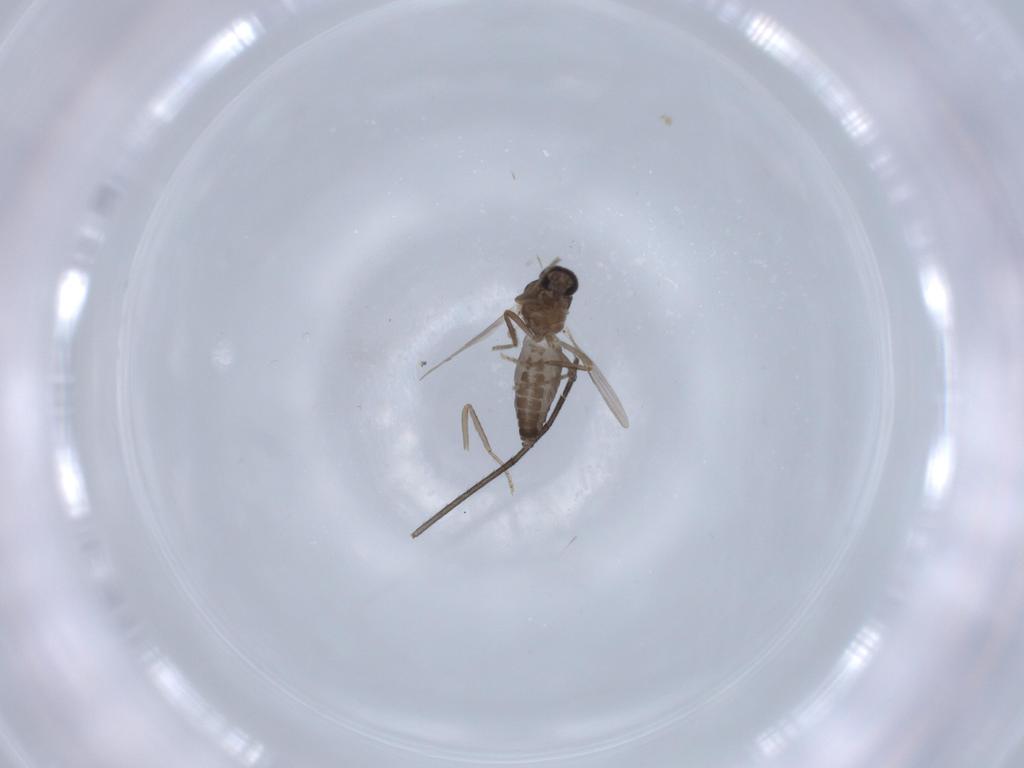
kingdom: Animalia
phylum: Arthropoda
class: Insecta
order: Diptera
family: Ceratopogonidae
